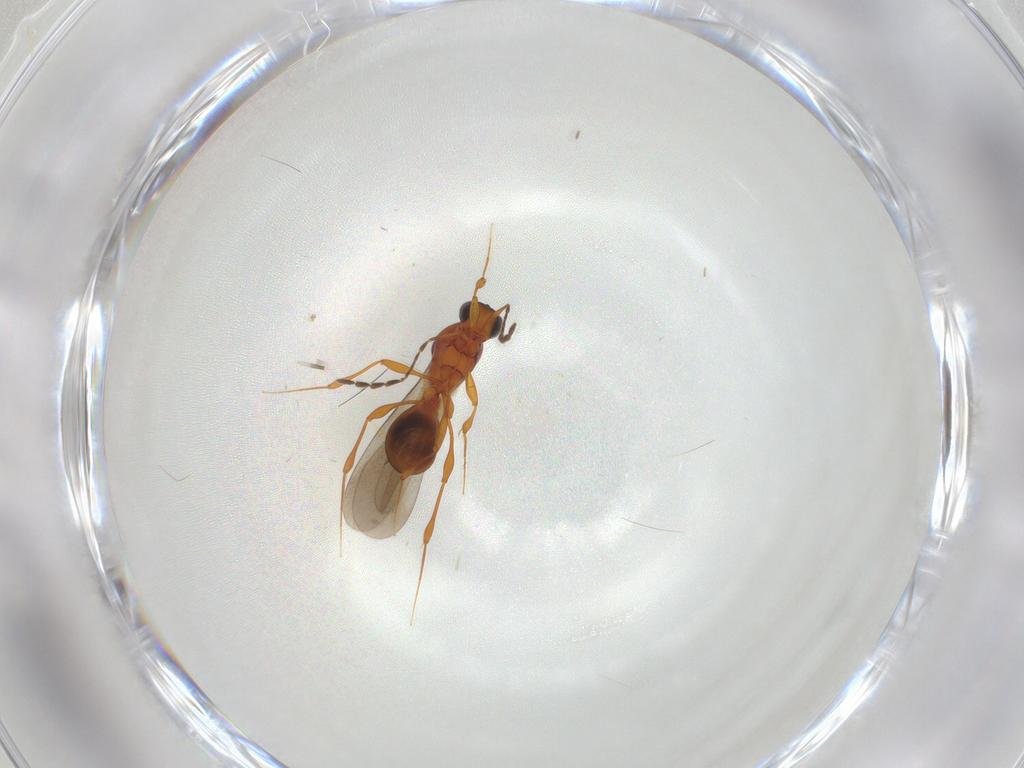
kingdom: Animalia
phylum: Arthropoda
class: Insecta
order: Hymenoptera
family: Platygastridae
